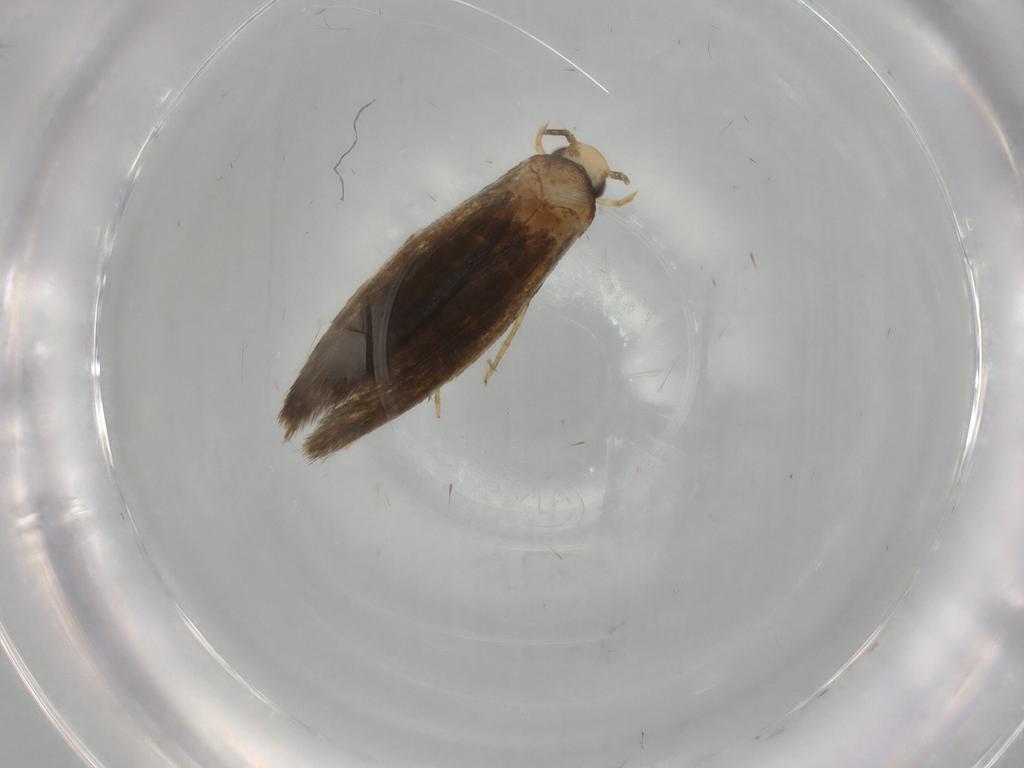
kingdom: Animalia
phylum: Arthropoda
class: Insecta
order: Lepidoptera
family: Tineidae
